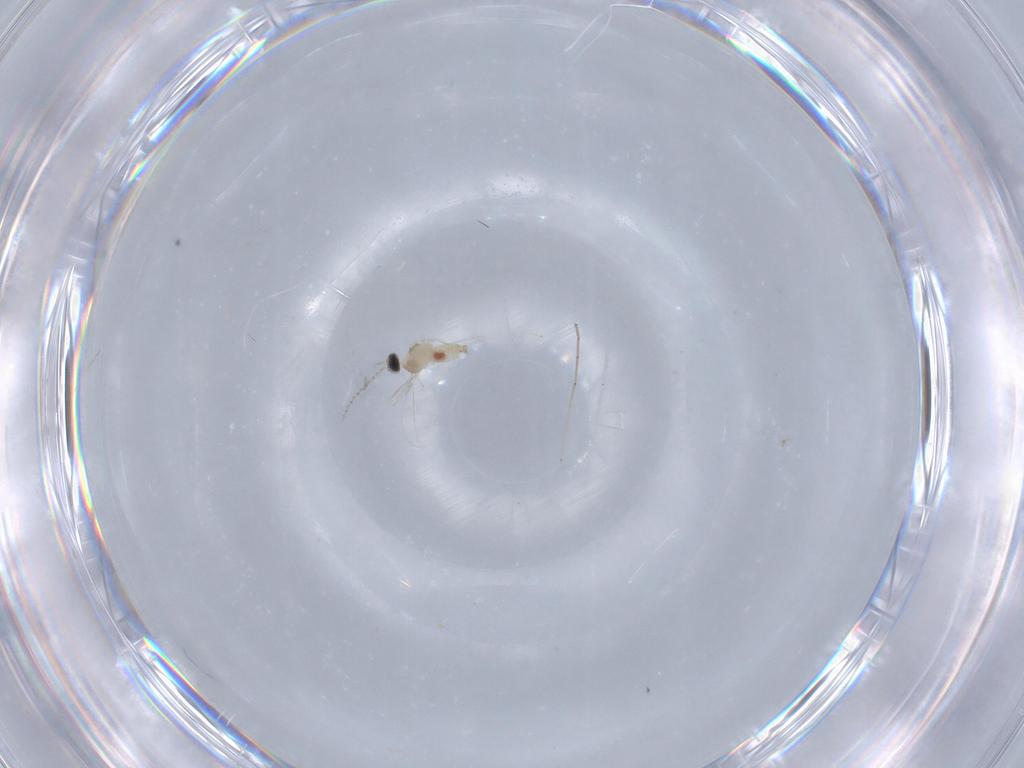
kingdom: Animalia
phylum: Arthropoda
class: Insecta
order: Diptera
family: Cecidomyiidae
